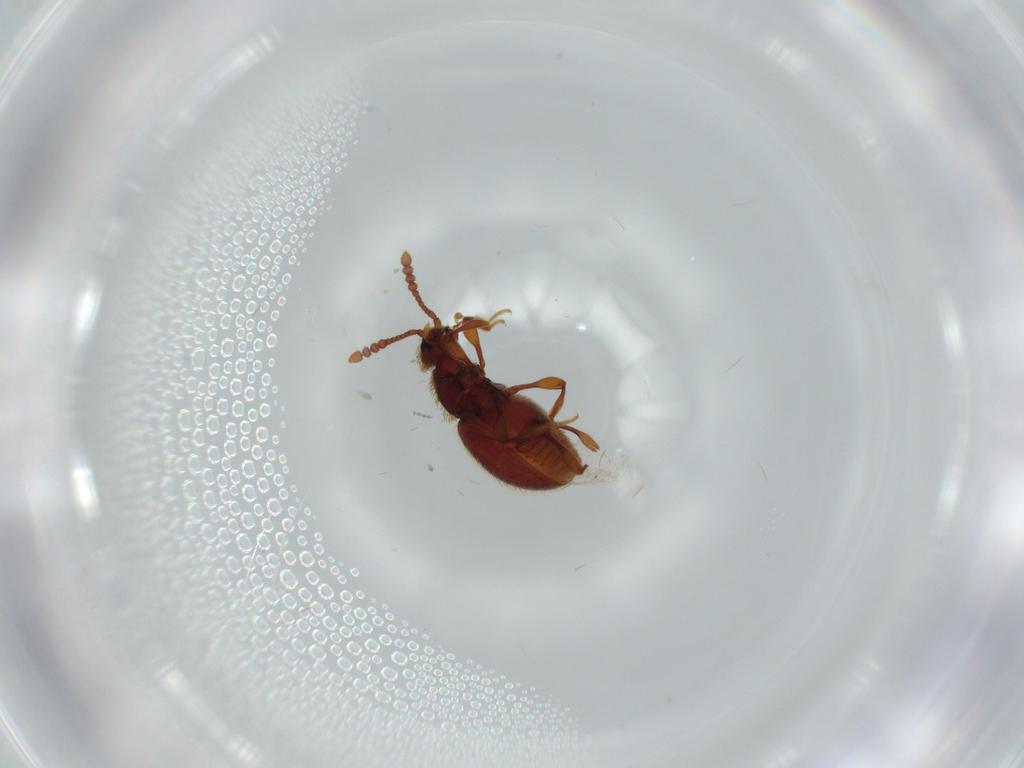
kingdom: Animalia
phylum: Arthropoda
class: Insecta
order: Coleoptera
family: Nitidulidae
